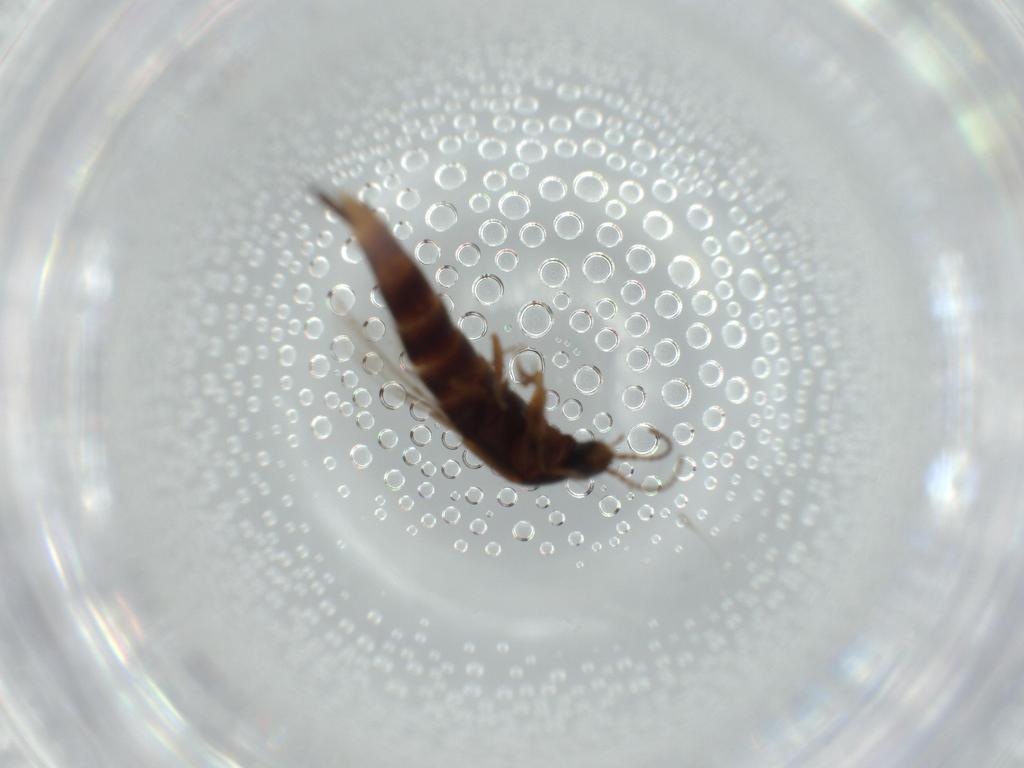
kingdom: Animalia
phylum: Arthropoda
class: Insecta
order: Coleoptera
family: Staphylinidae
